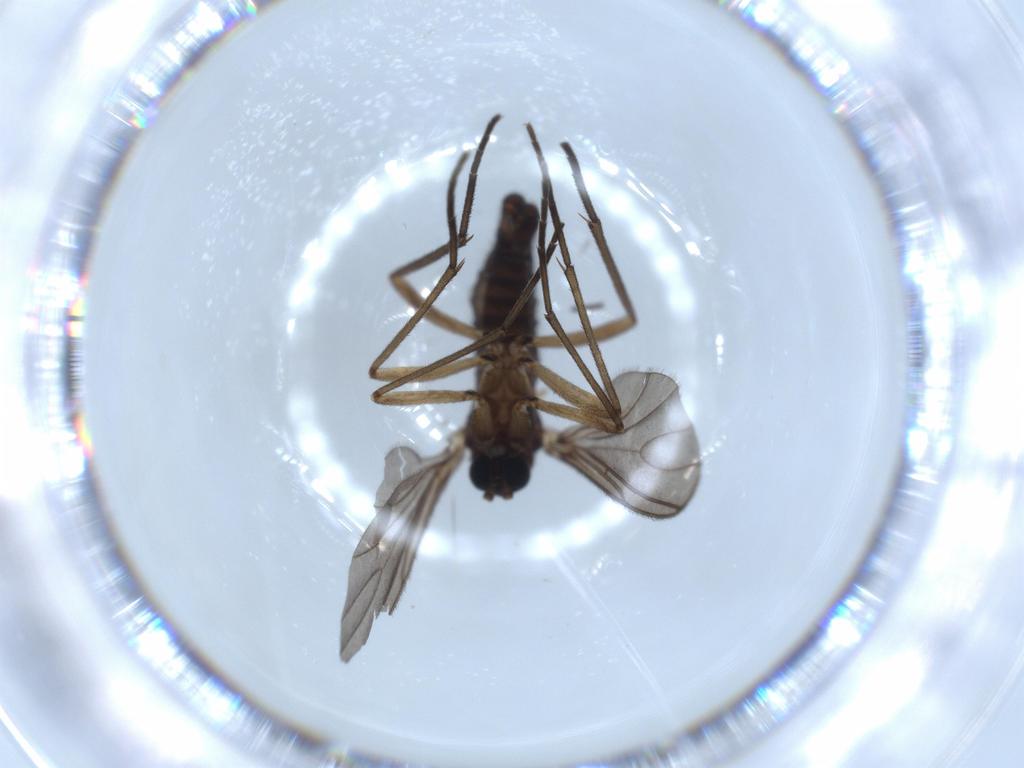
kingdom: Animalia
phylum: Arthropoda
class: Insecta
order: Diptera
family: Sciaridae
